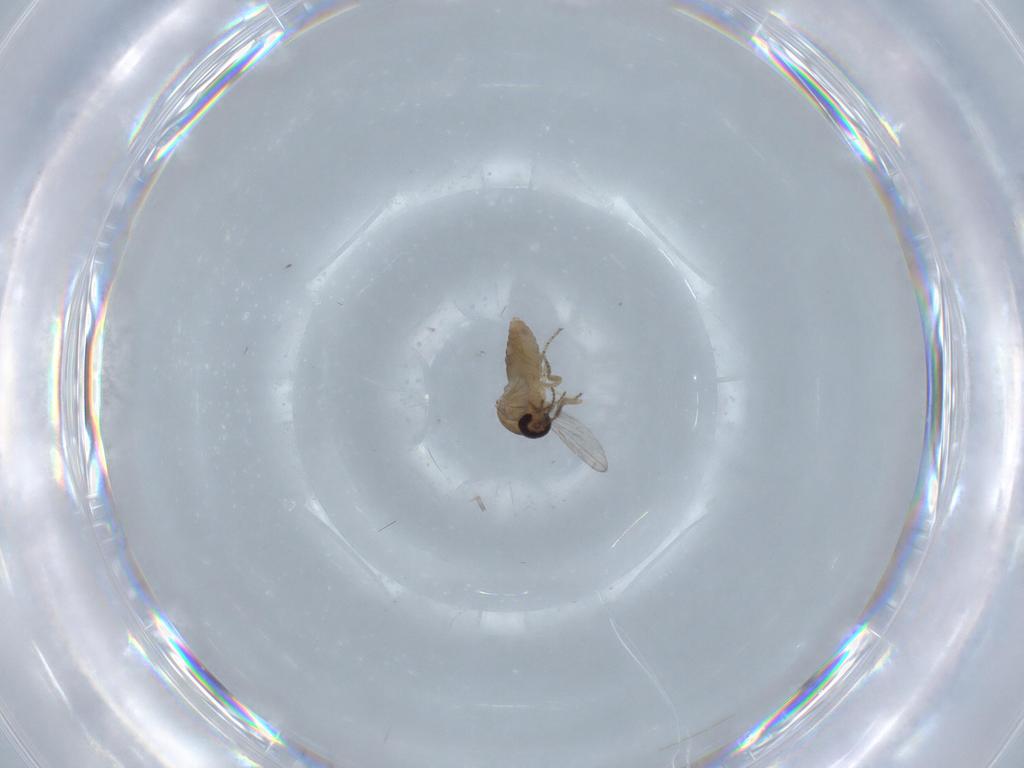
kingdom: Animalia
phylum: Arthropoda
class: Insecta
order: Diptera
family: Ceratopogonidae
